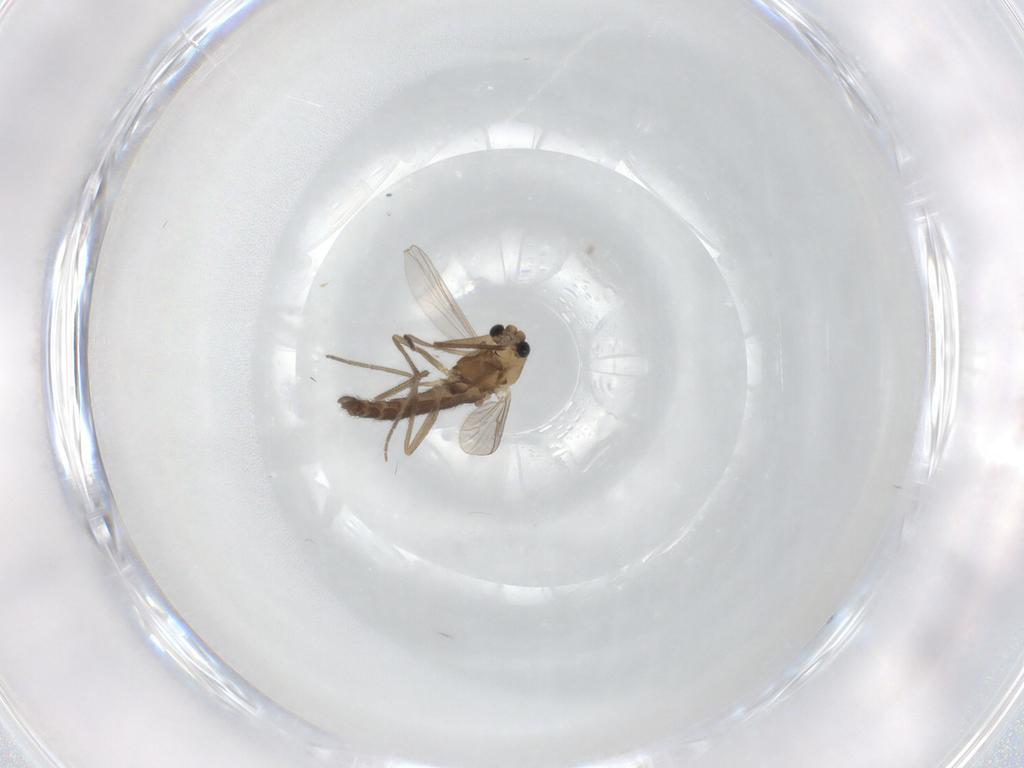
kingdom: Animalia
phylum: Arthropoda
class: Insecta
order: Diptera
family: Chironomidae
